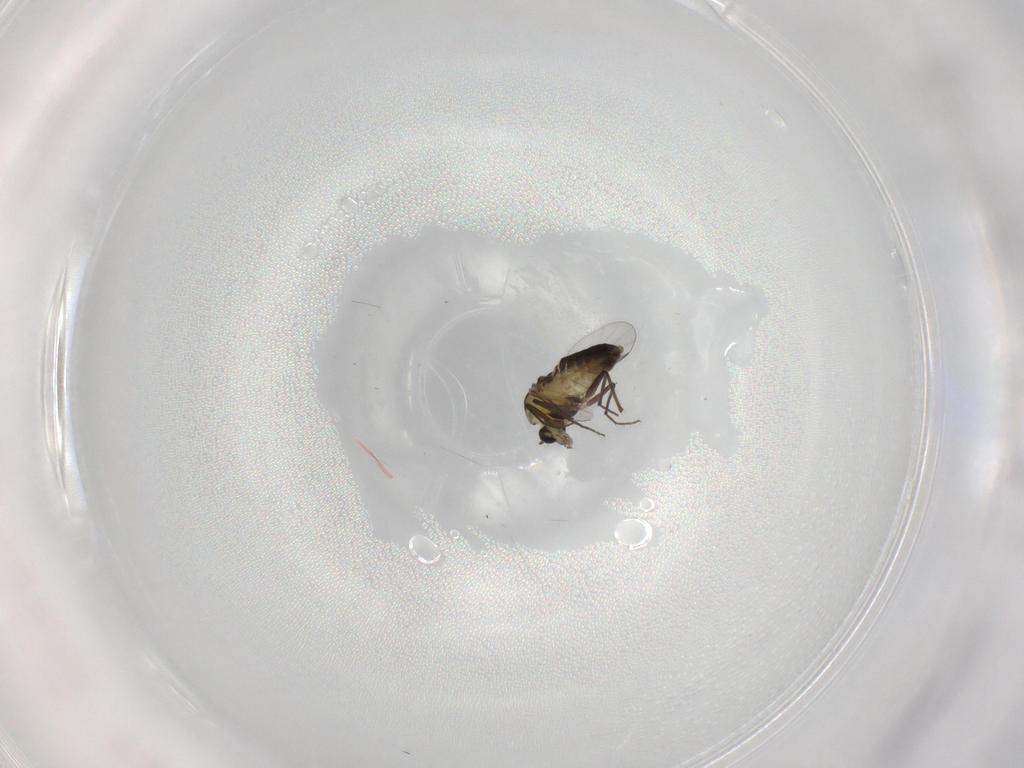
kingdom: Animalia
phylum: Arthropoda
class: Insecta
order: Diptera
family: Chironomidae
